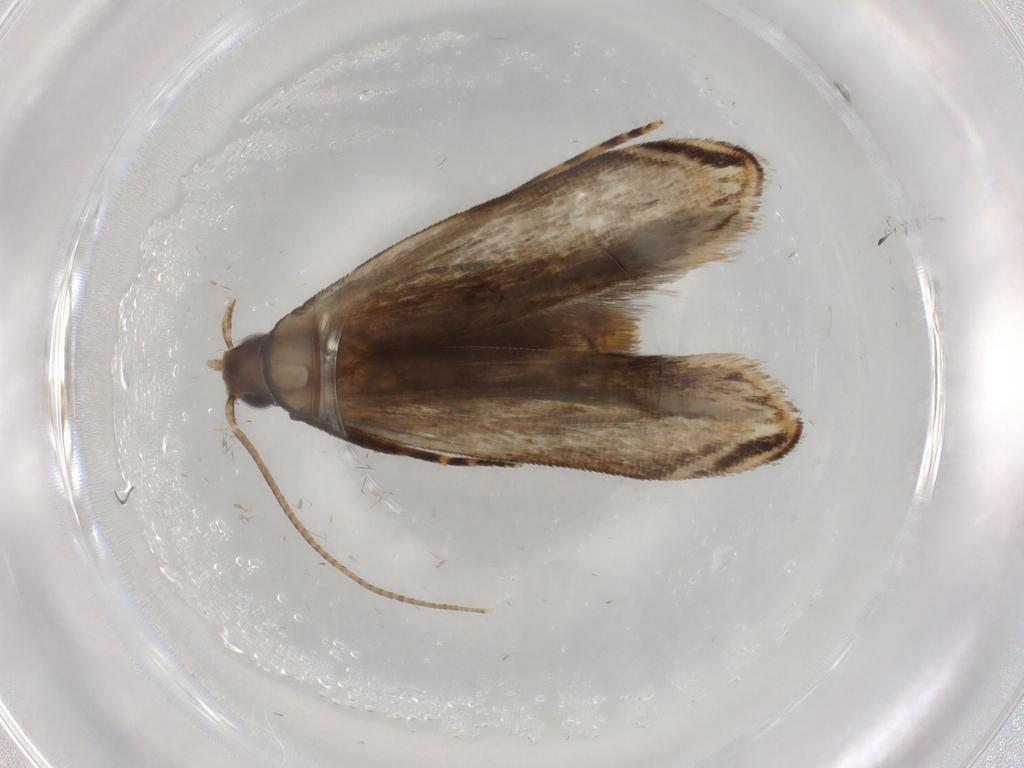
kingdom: Animalia
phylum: Arthropoda
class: Insecta
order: Lepidoptera
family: Gelechiidae
